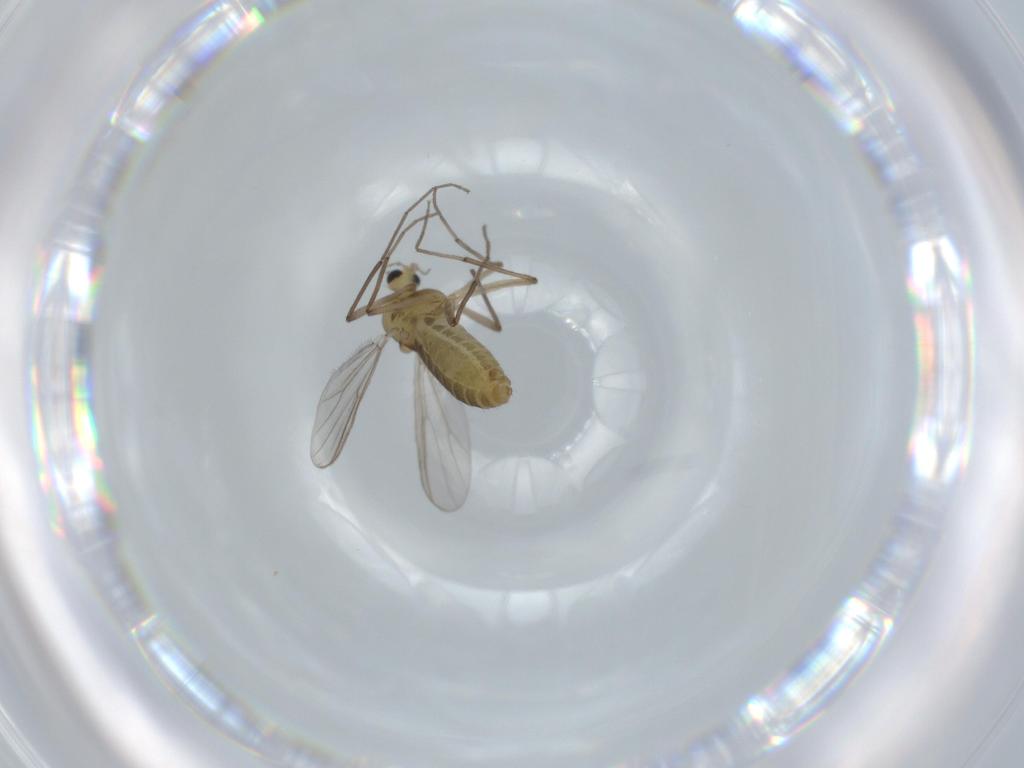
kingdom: Animalia
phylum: Arthropoda
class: Insecta
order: Diptera
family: Chironomidae
